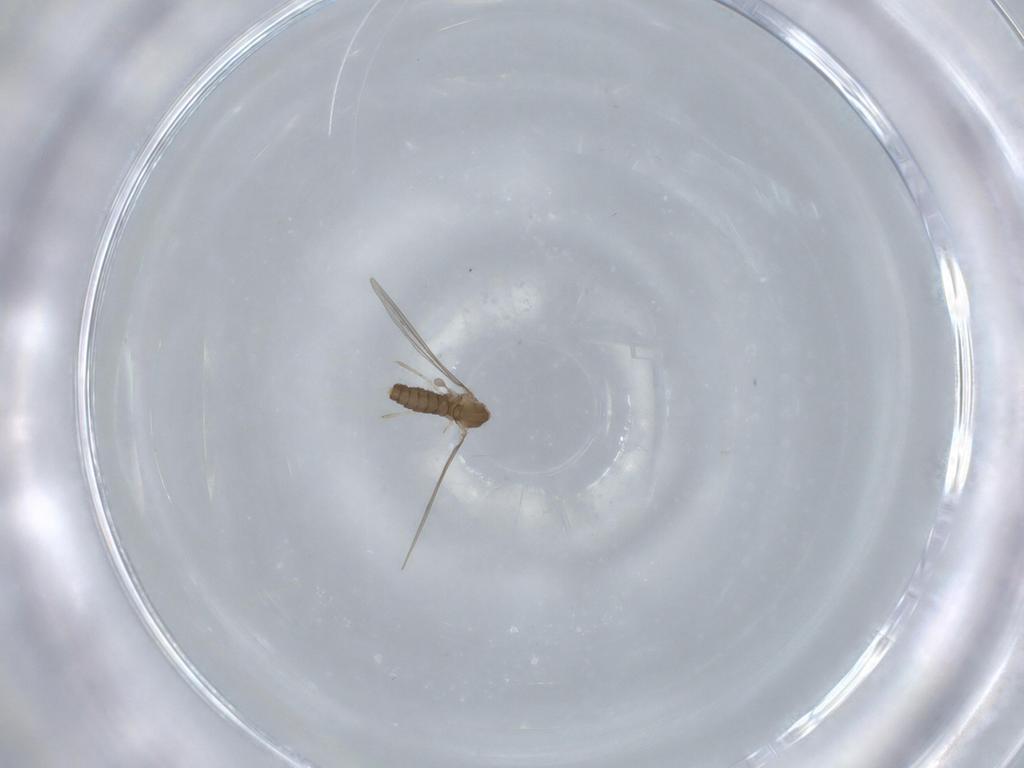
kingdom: Animalia
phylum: Arthropoda
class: Insecta
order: Diptera
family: Cecidomyiidae
